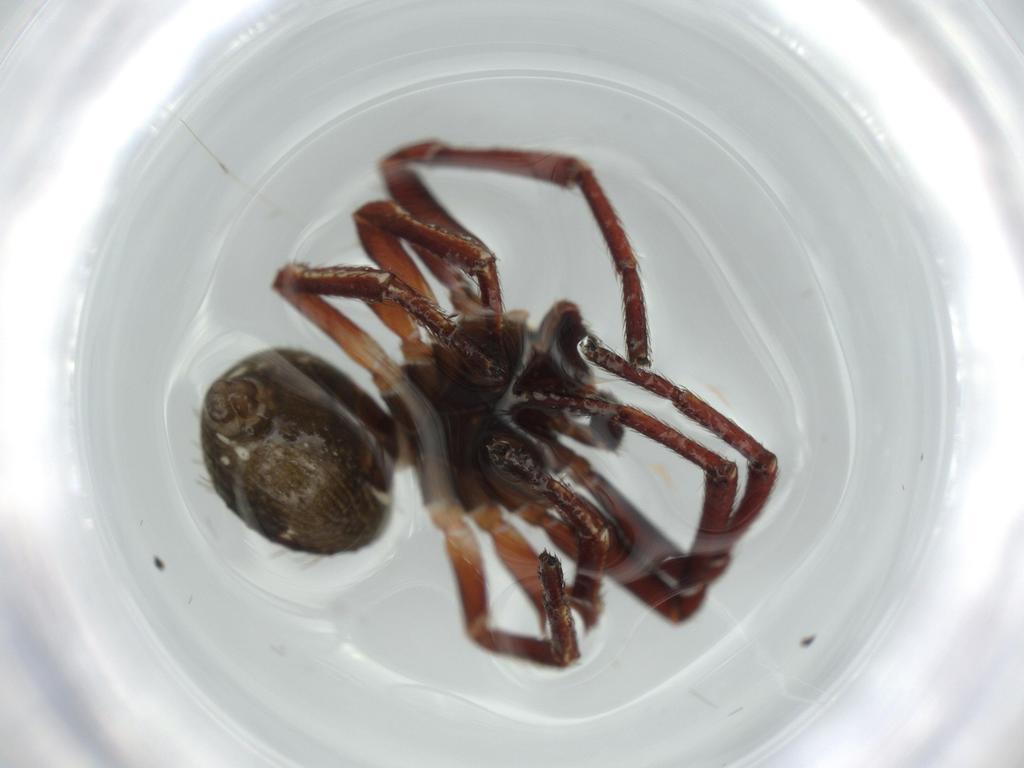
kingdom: Animalia
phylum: Arthropoda
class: Arachnida
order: Araneae
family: Thomisidae
